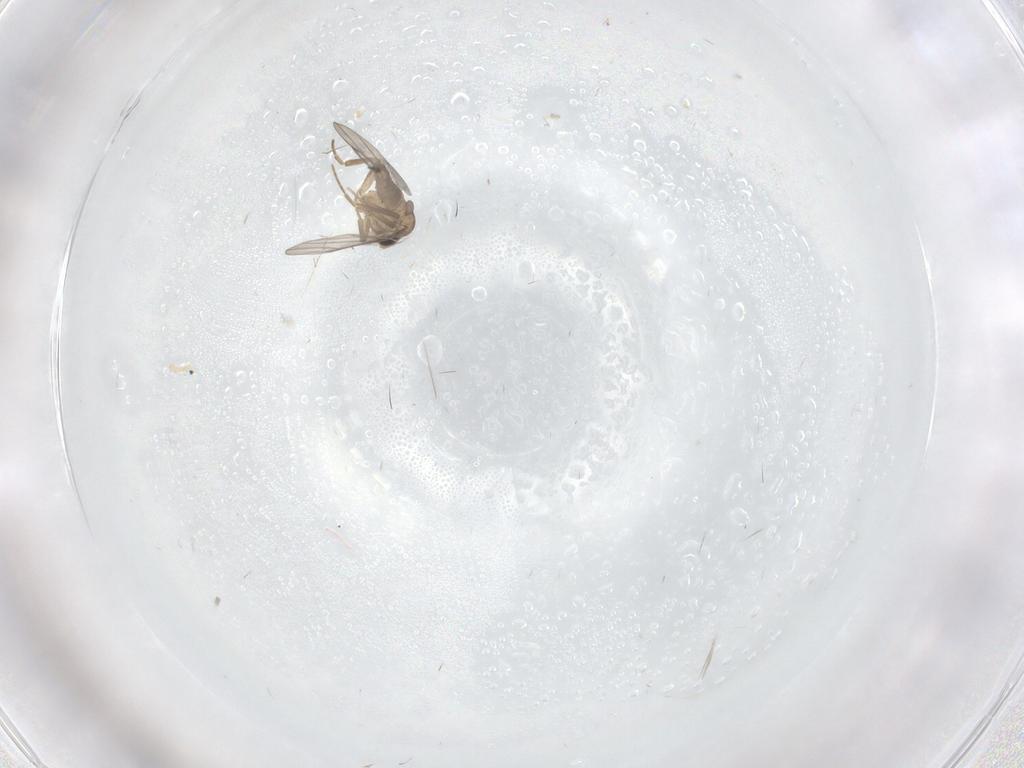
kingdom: Animalia
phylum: Arthropoda
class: Insecta
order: Diptera
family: Sciaridae
